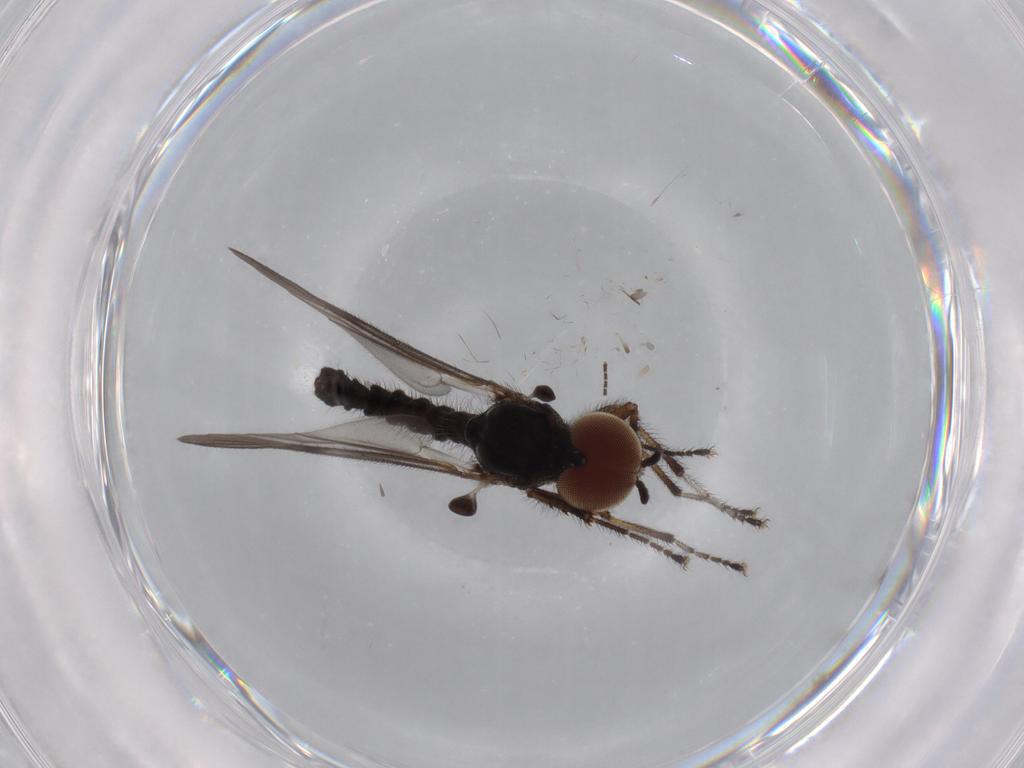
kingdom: Animalia
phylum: Arthropoda
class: Insecta
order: Diptera
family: Bibionidae
